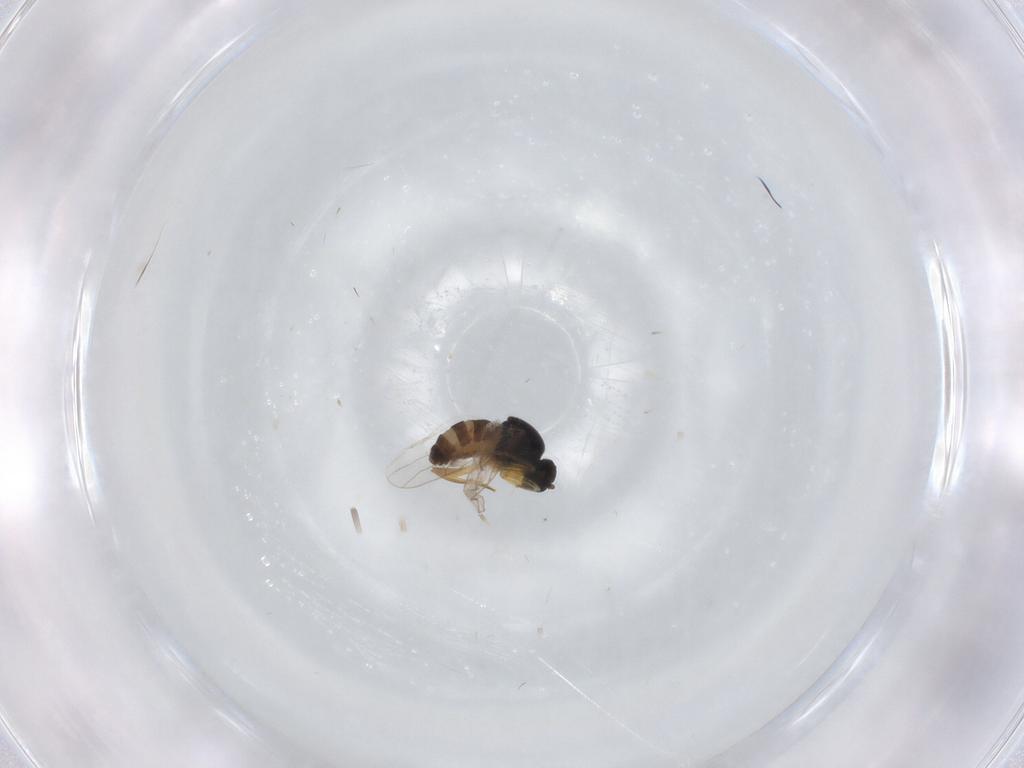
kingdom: Animalia
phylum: Arthropoda
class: Insecta
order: Diptera
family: Hybotidae
